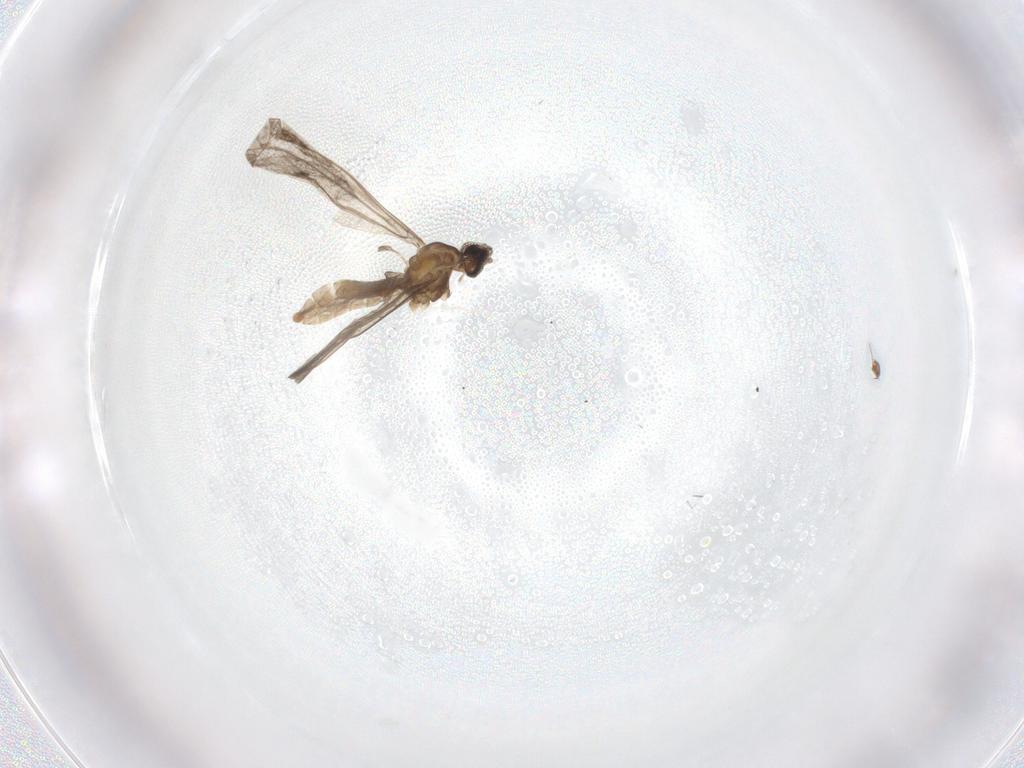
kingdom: Animalia
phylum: Arthropoda
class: Insecta
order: Diptera
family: Cecidomyiidae
